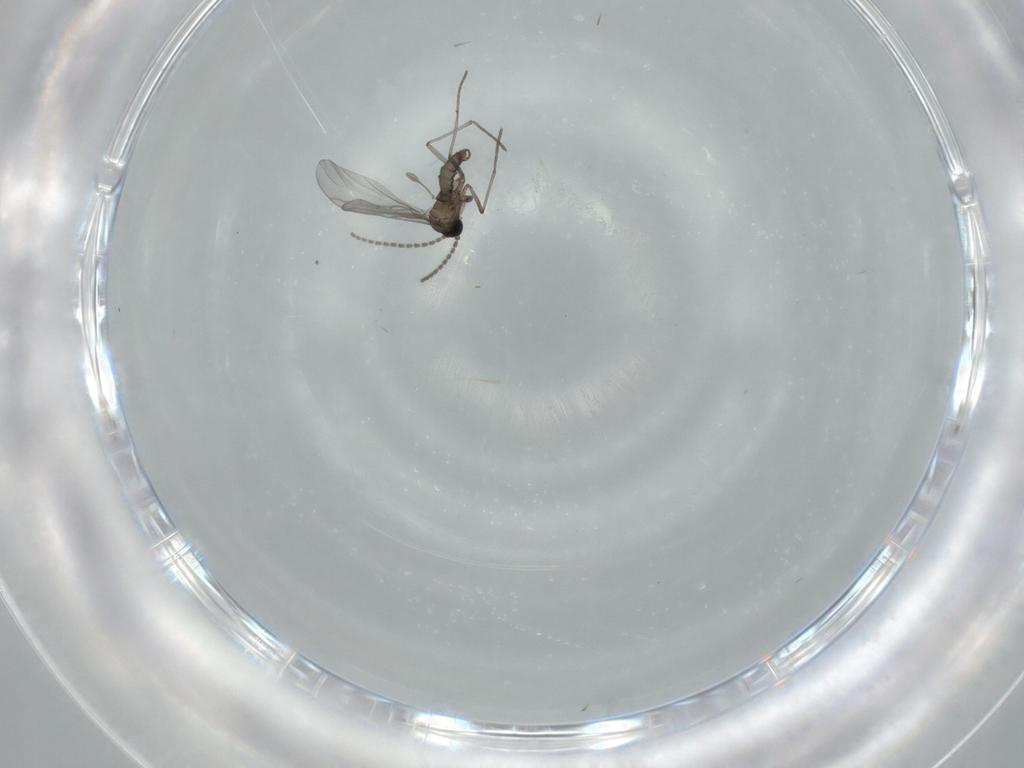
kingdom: Animalia
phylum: Arthropoda
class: Insecta
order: Diptera
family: Sciaridae
